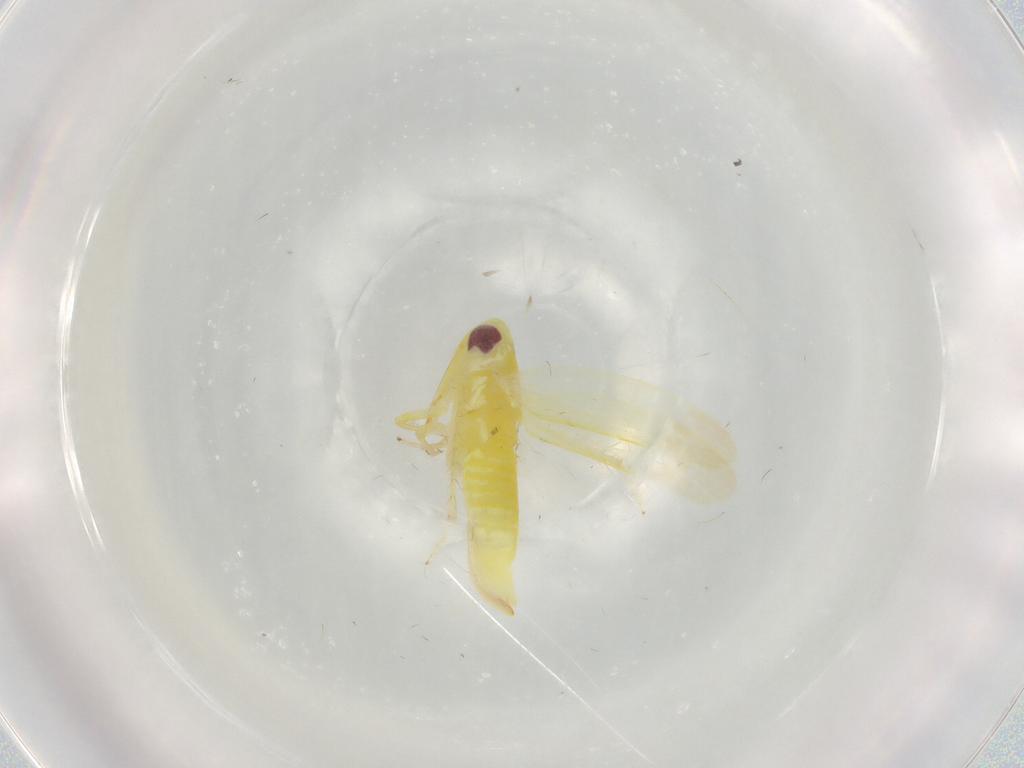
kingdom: Animalia
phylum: Arthropoda
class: Insecta
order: Hemiptera
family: Cicadellidae
